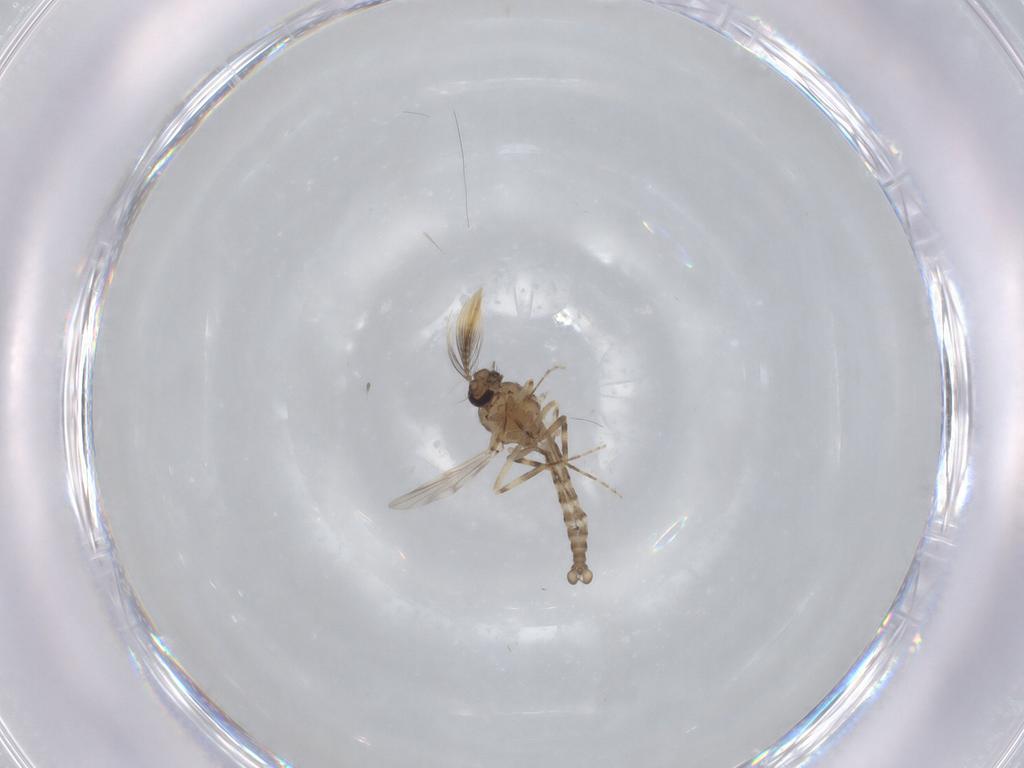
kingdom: Animalia
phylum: Arthropoda
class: Insecta
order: Diptera
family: Ceratopogonidae
